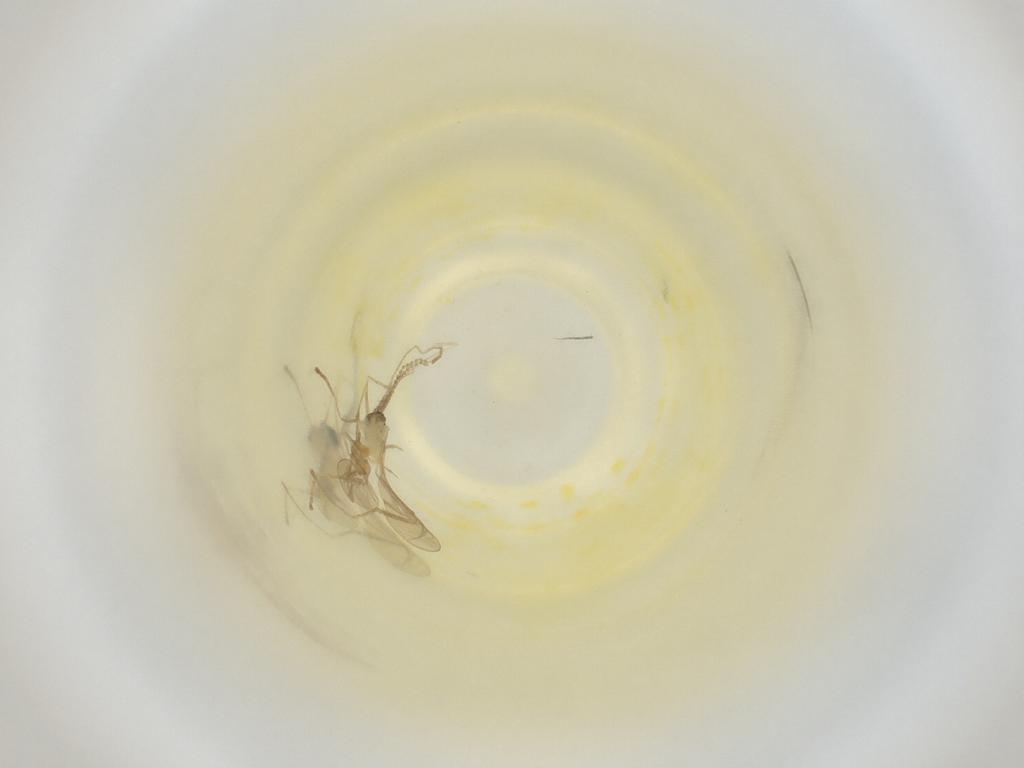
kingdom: Animalia
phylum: Arthropoda
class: Insecta
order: Diptera
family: Cecidomyiidae
